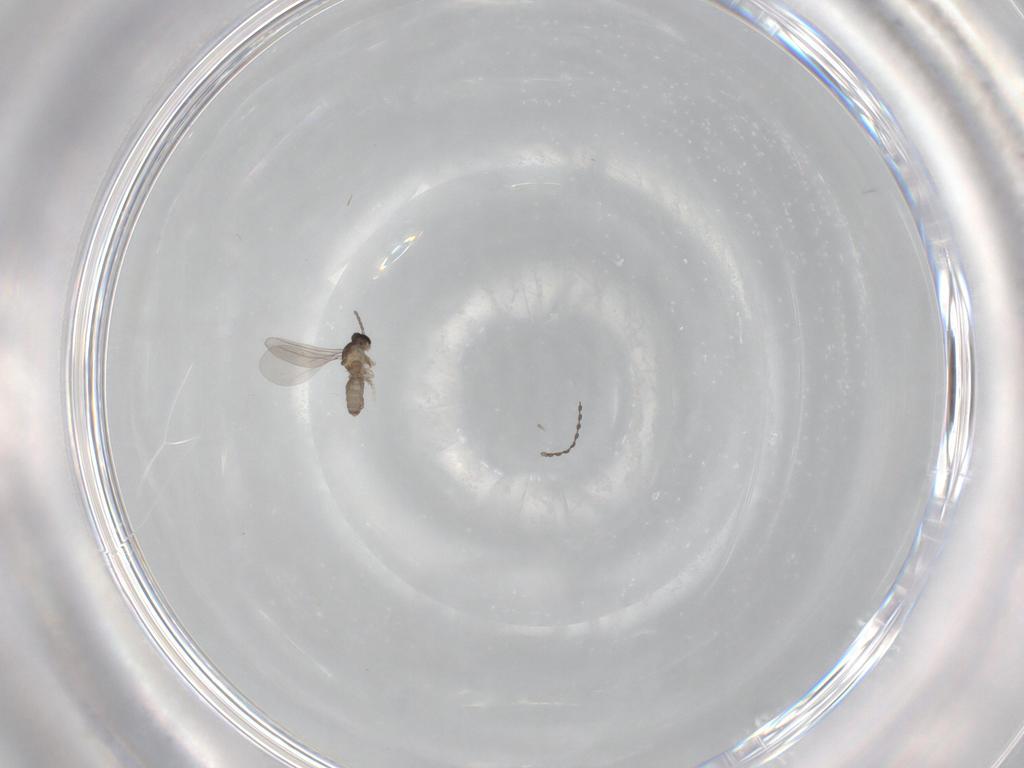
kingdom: Animalia
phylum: Arthropoda
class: Insecta
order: Diptera
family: Cecidomyiidae
